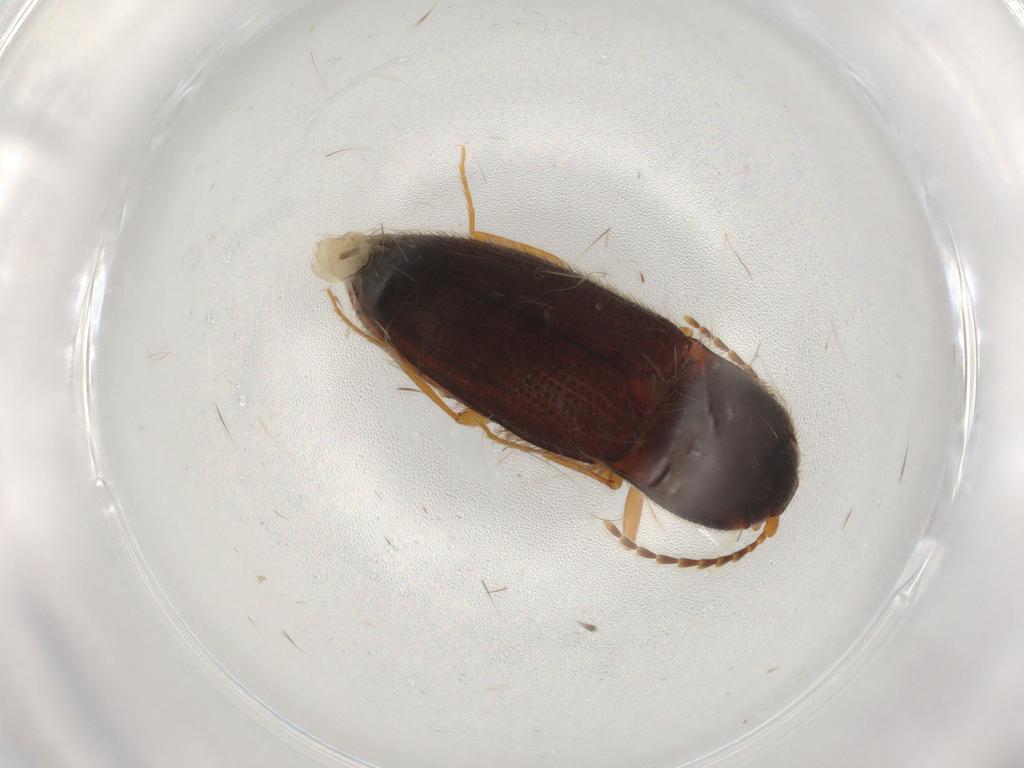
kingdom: Animalia
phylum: Arthropoda
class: Insecta
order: Coleoptera
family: Elateridae
